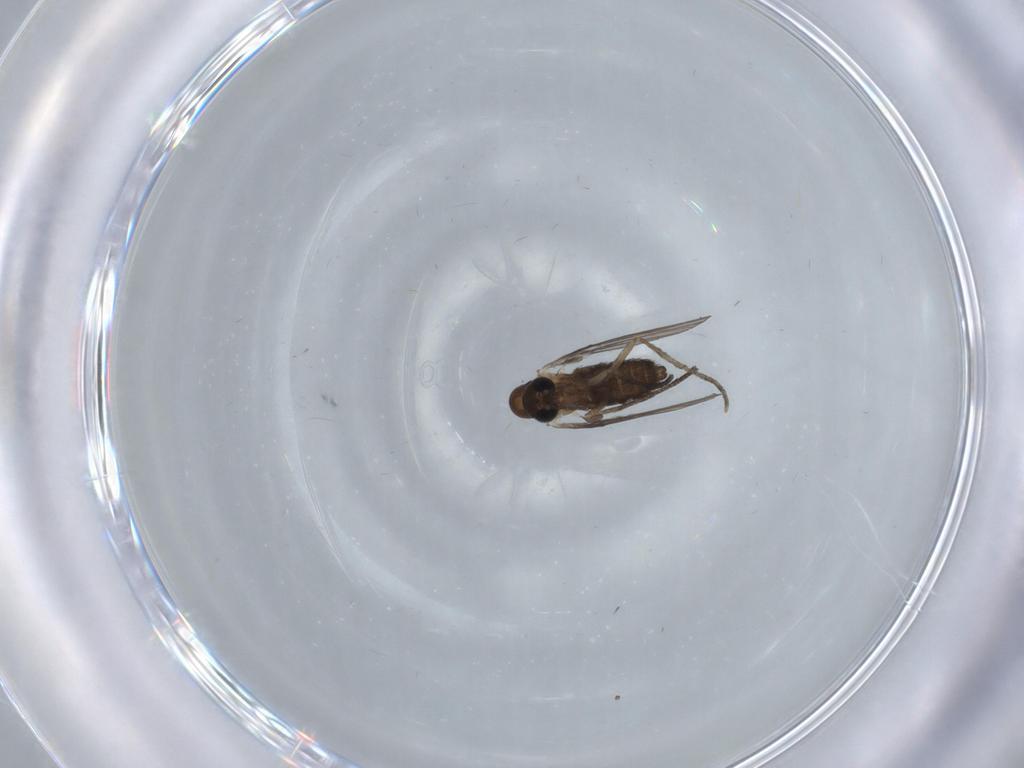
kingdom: Animalia
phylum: Arthropoda
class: Insecta
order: Diptera
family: Psychodidae
